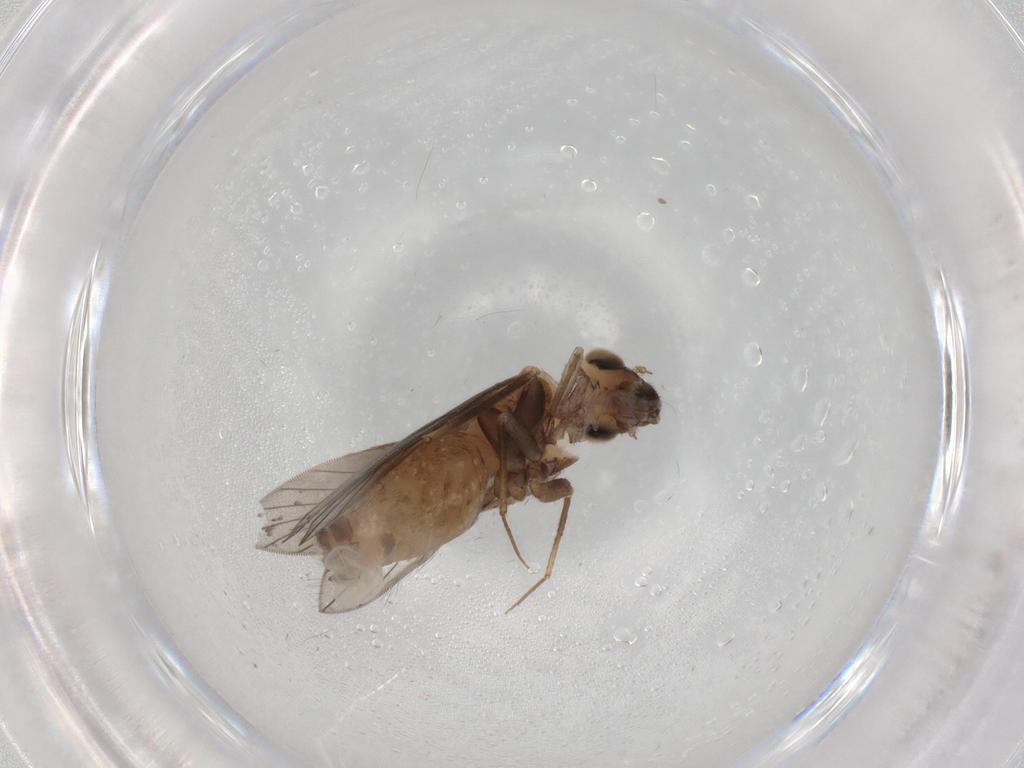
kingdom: Animalia
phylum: Arthropoda
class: Insecta
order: Psocodea
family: Lepidopsocidae
